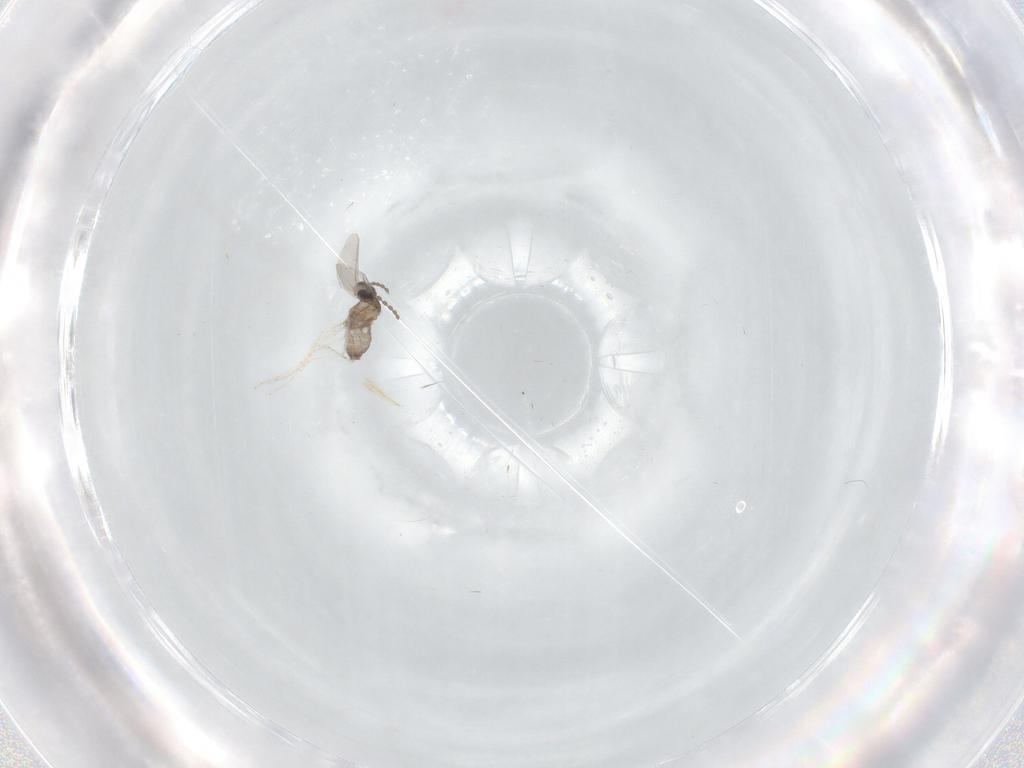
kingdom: Animalia
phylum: Arthropoda
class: Insecta
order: Diptera
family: Cecidomyiidae
